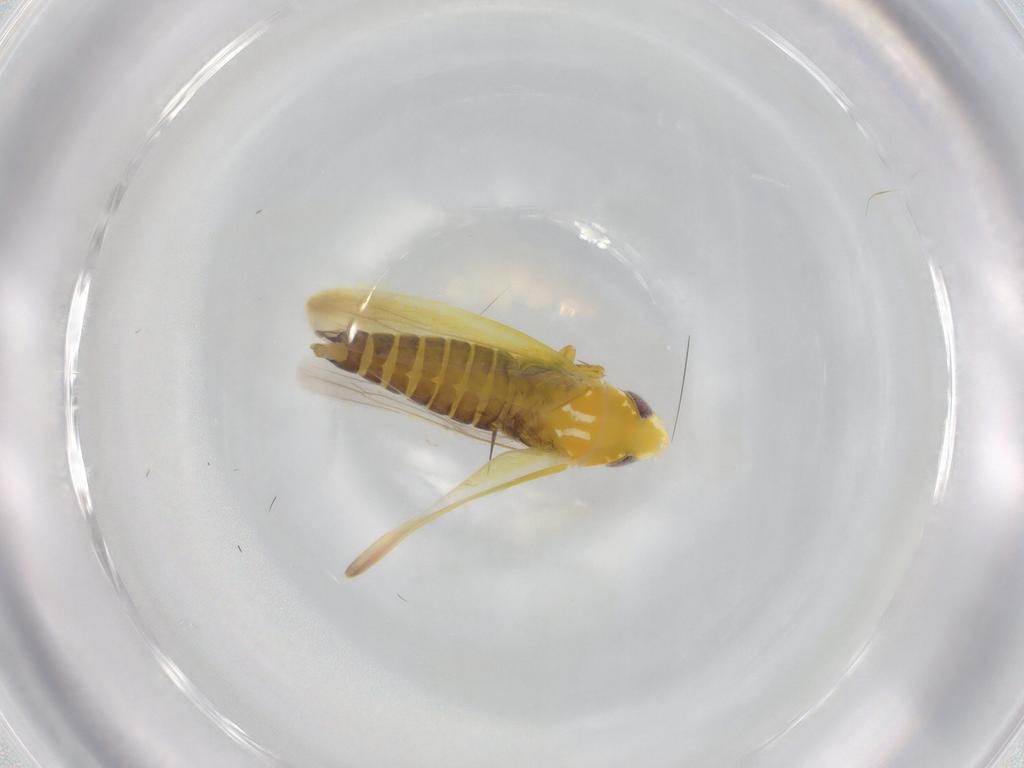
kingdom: Animalia
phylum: Arthropoda
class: Insecta
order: Hemiptera
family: Cicadellidae
